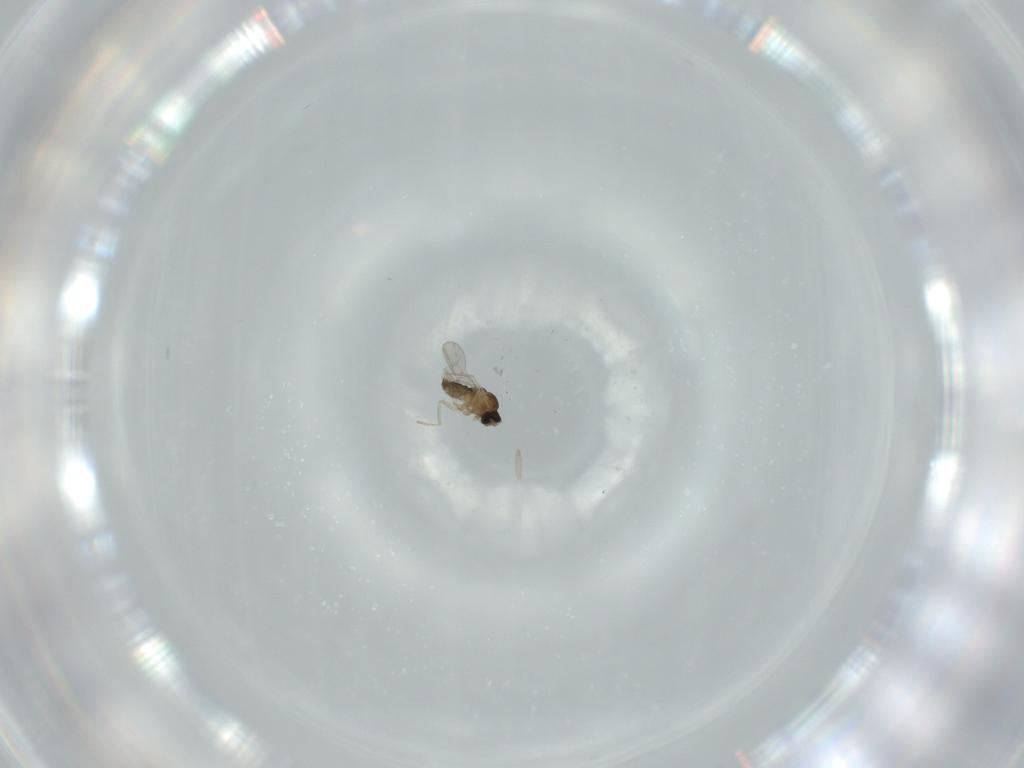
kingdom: Animalia
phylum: Arthropoda
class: Insecta
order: Diptera
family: Cecidomyiidae
